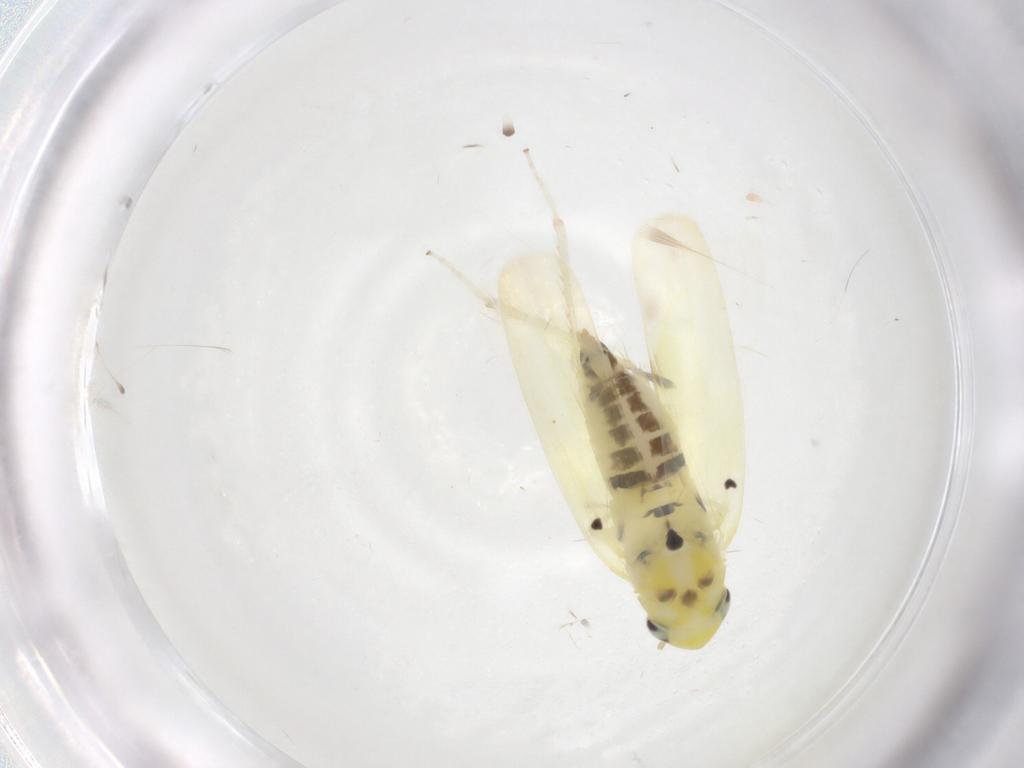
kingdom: Animalia
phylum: Arthropoda
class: Insecta
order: Hemiptera
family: Cicadellidae
